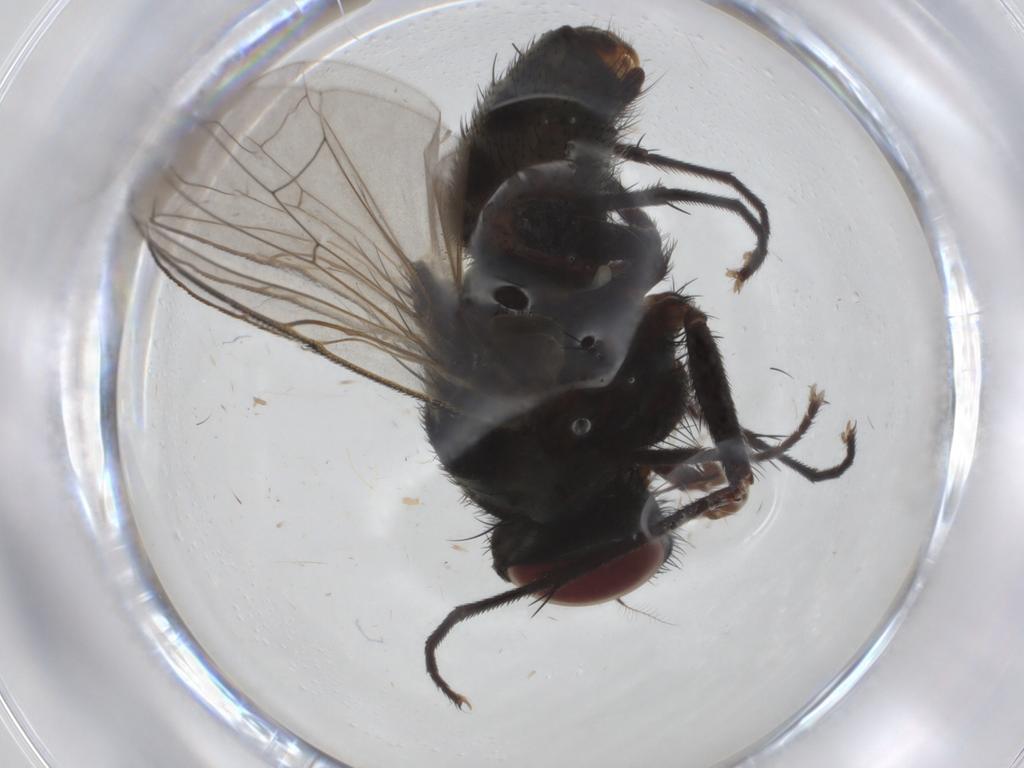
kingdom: Animalia
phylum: Arthropoda
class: Insecta
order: Diptera
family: Muscidae
